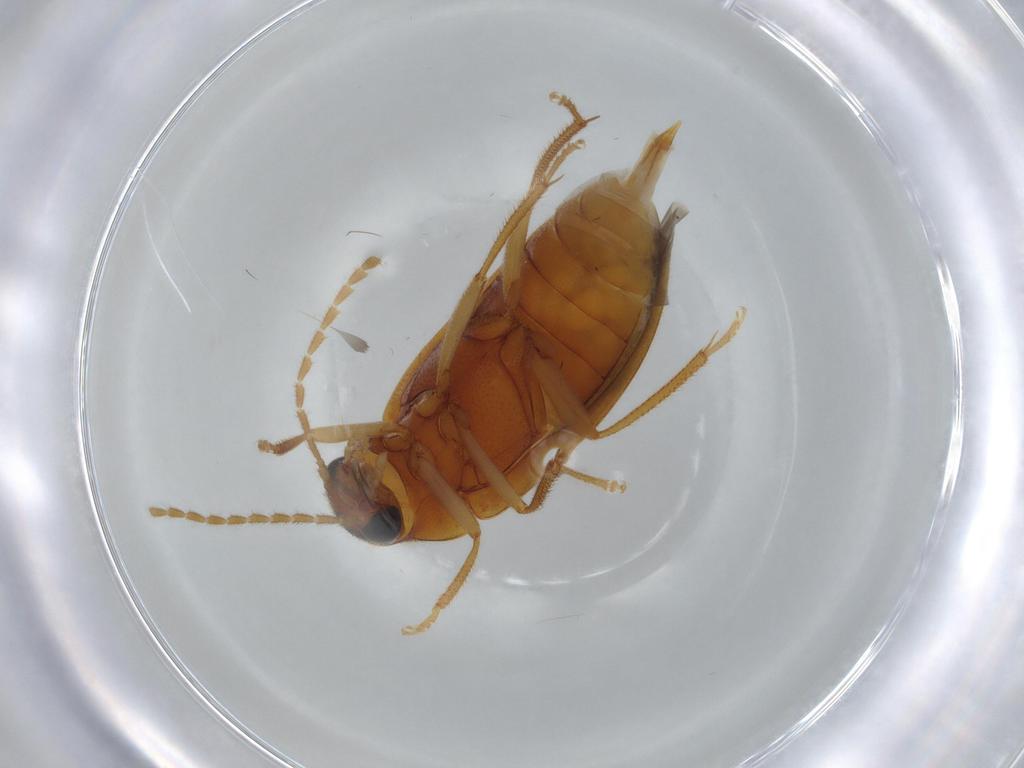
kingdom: Animalia
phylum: Arthropoda
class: Insecta
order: Coleoptera
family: Ptilodactylidae
